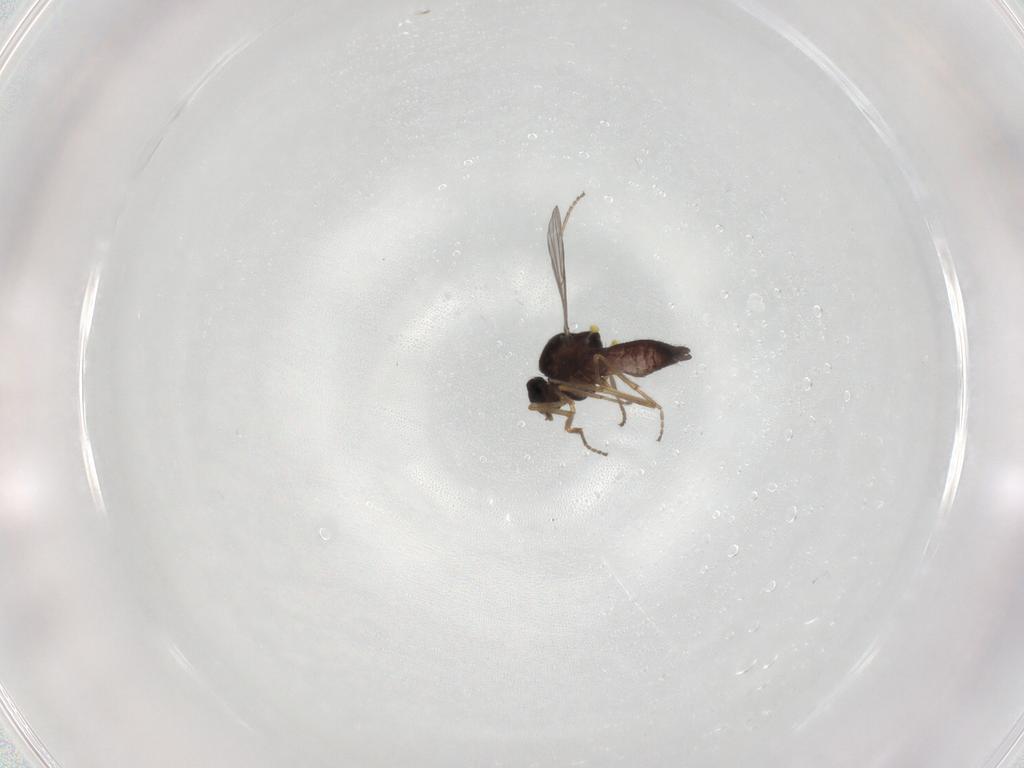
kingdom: Animalia
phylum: Arthropoda
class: Insecta
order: Diptera
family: Ceratopogonidae
